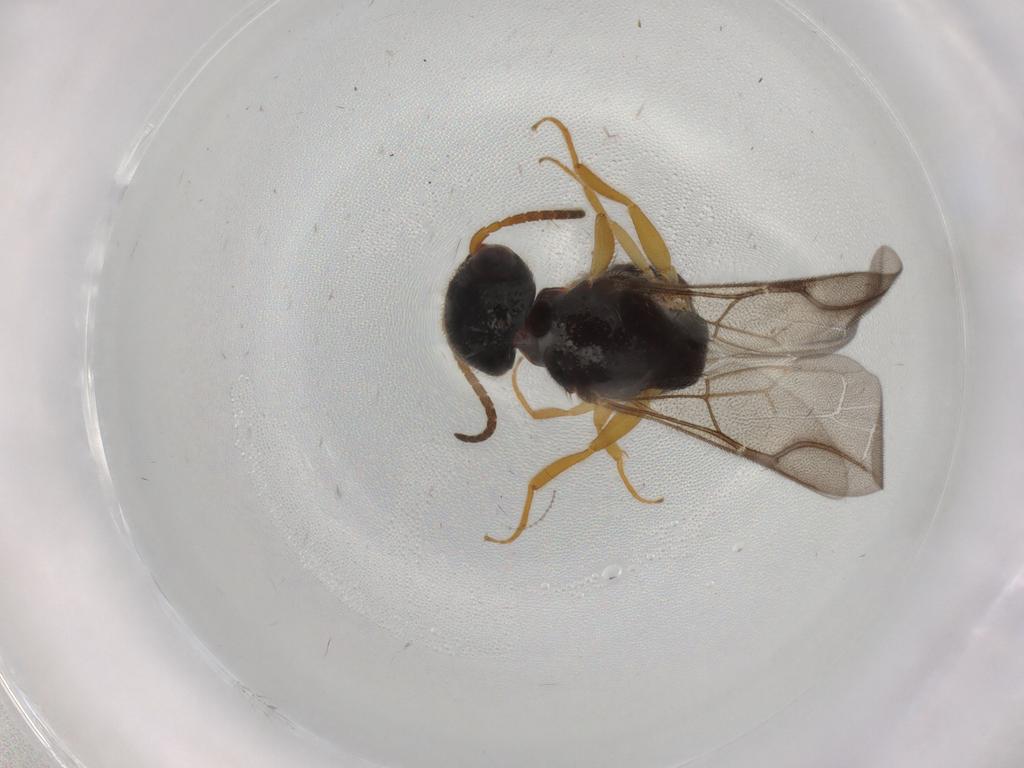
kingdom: Animalia
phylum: Arthropoda
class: Insecta
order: Hymenoptera
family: Bethylidae
